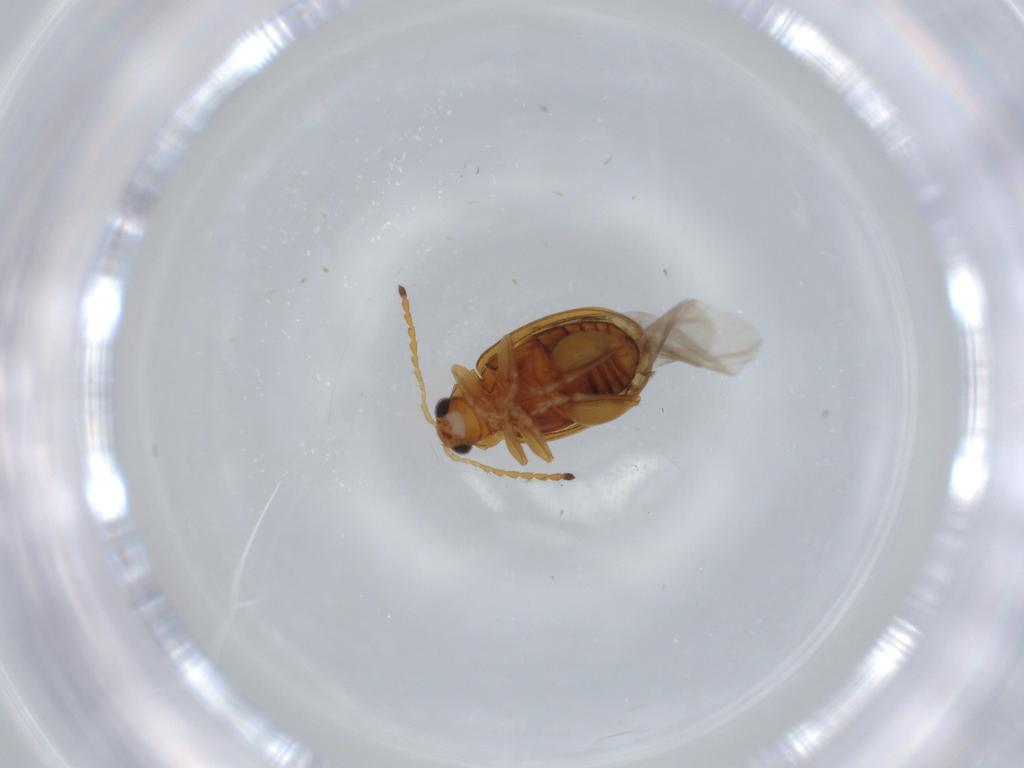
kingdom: Animalia
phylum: Arthropoda
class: Insecta
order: Coleoptera
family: Chrysomelidae
